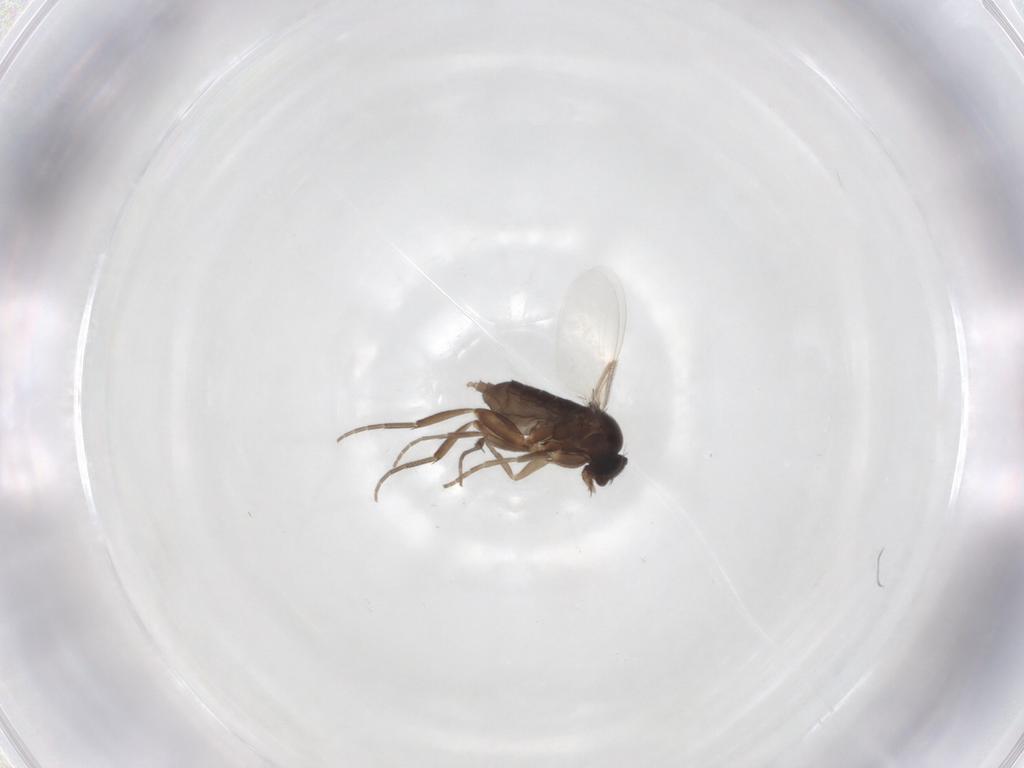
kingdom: Animalia
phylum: Arthropoda
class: Insecta
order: Diptera
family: Phoridae
